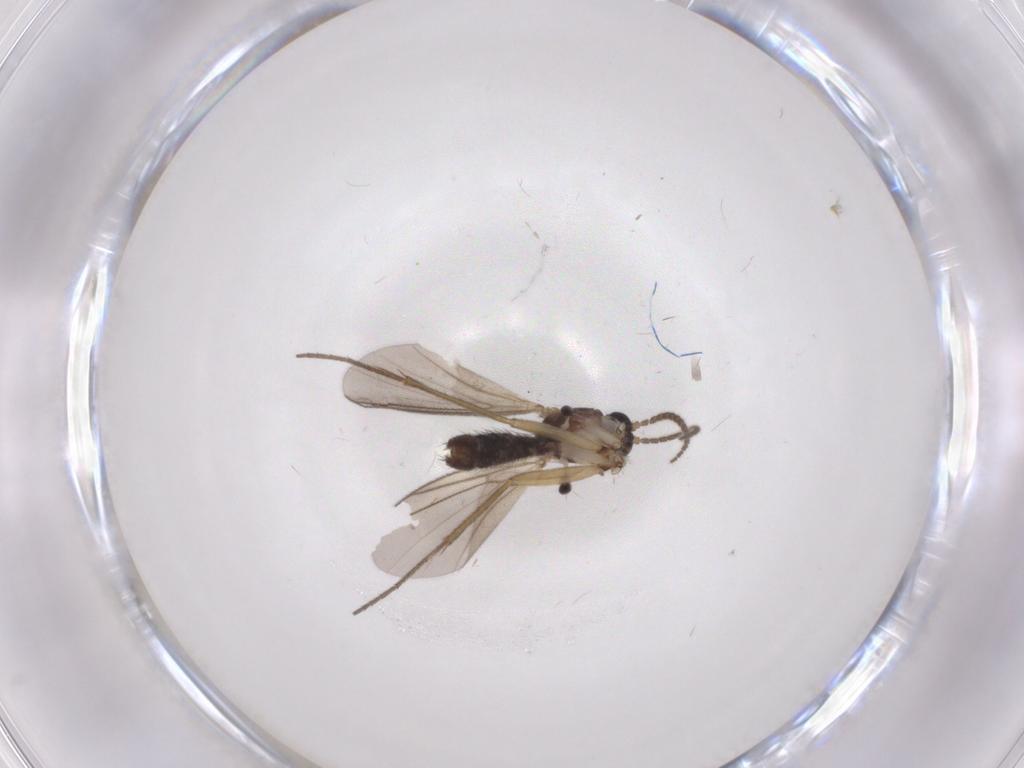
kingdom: Animalia
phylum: Arthropoda
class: Insecta
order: Diptera
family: Mycetophilidae
